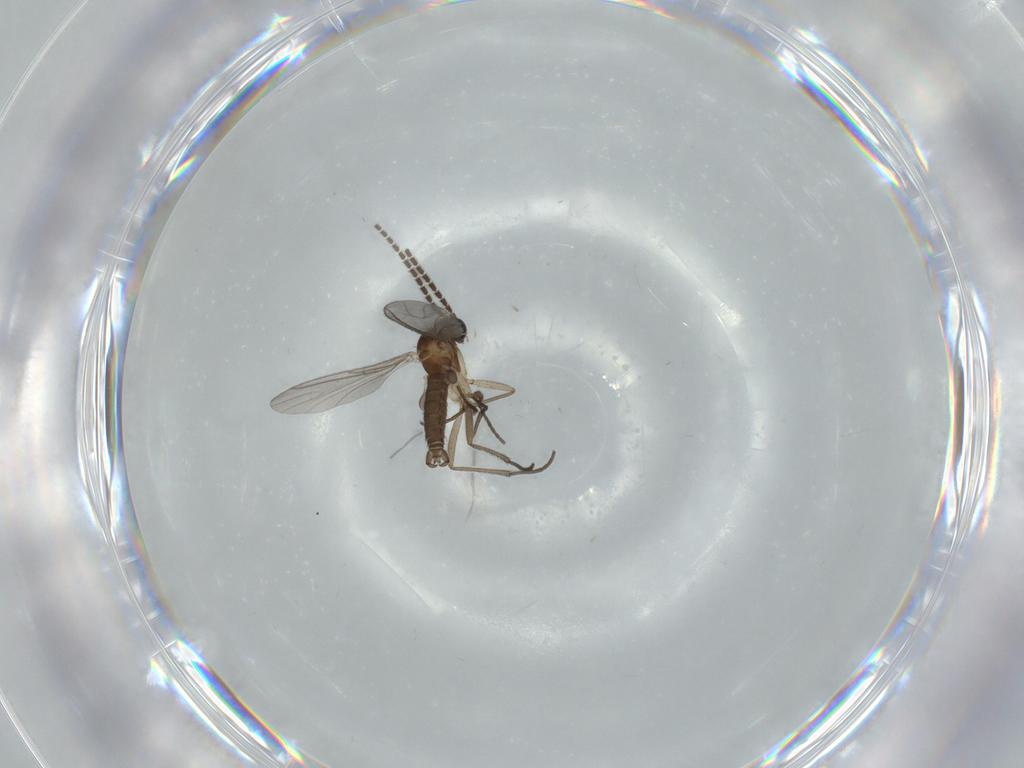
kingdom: Animalia
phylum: Arthropoda
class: Insecta
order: Diptera
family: Sciaridae
